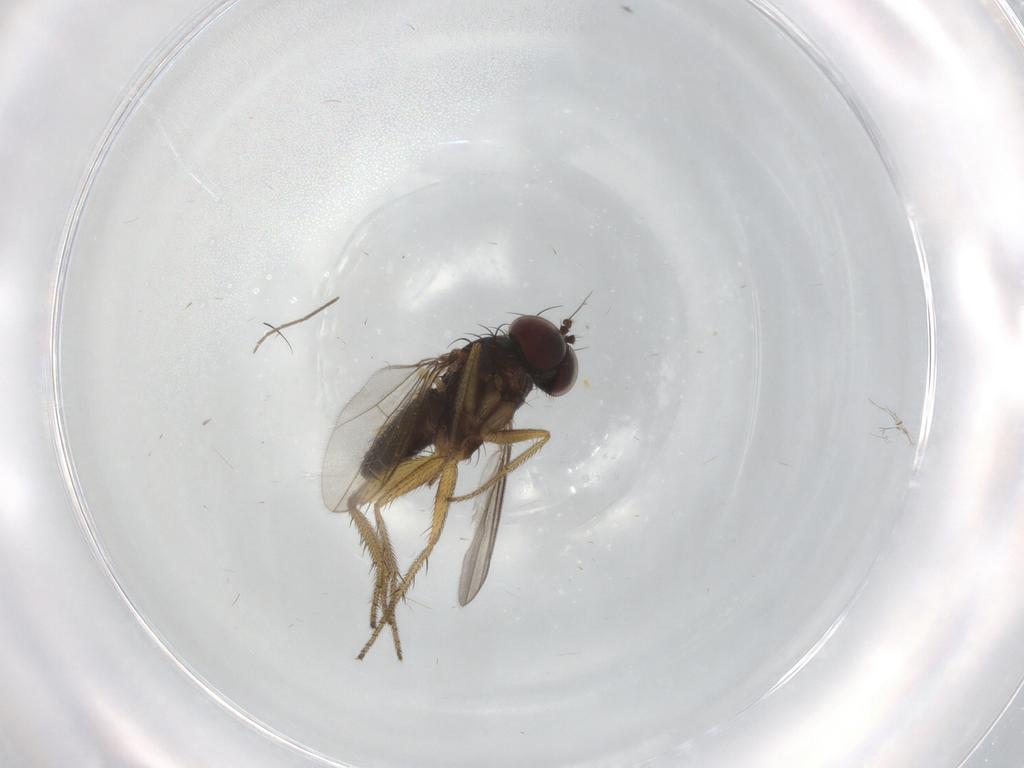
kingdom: Animalia
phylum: Arthropoda
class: Insecta
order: Diptera
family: Dolichopodidae
